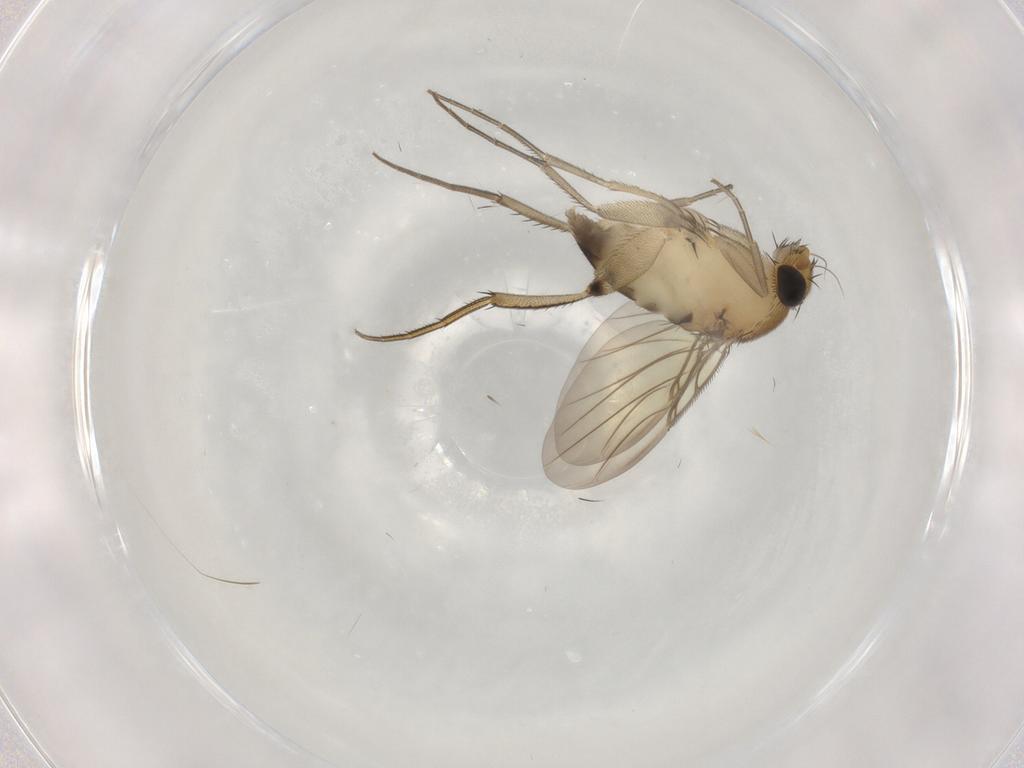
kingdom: Animalia
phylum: Arthropoda
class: Insecta
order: Diptera
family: Phoridae
